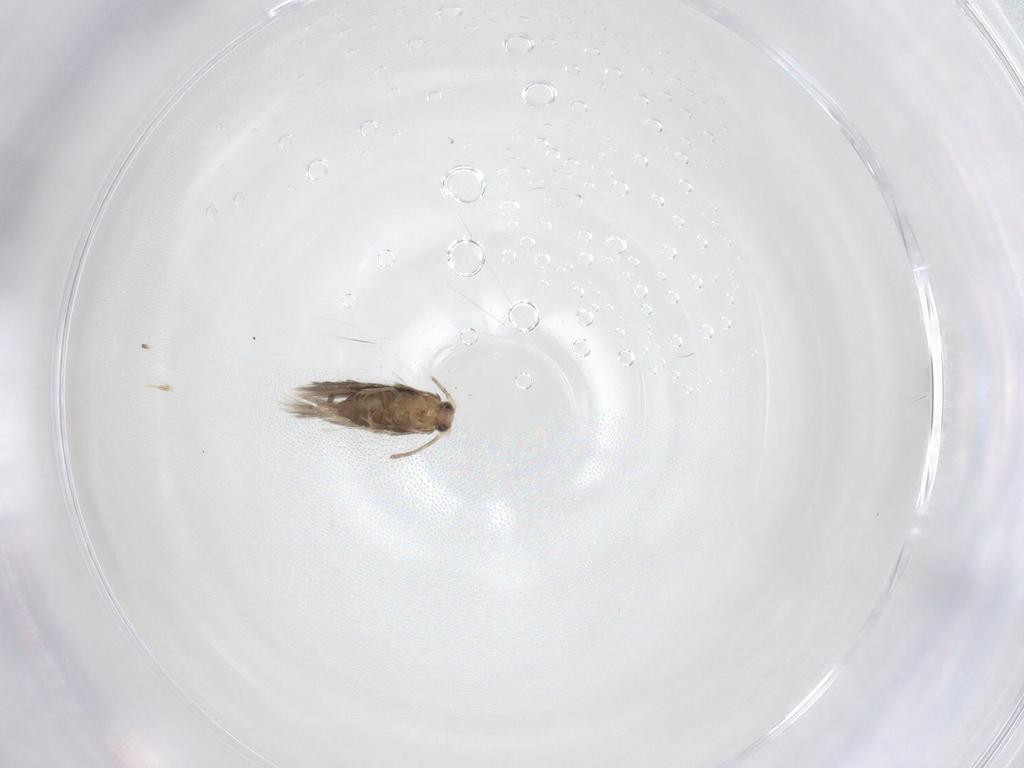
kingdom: Animalia
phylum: Arthropoda
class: Insecta
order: Lepidoptera
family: Nepticulidae
